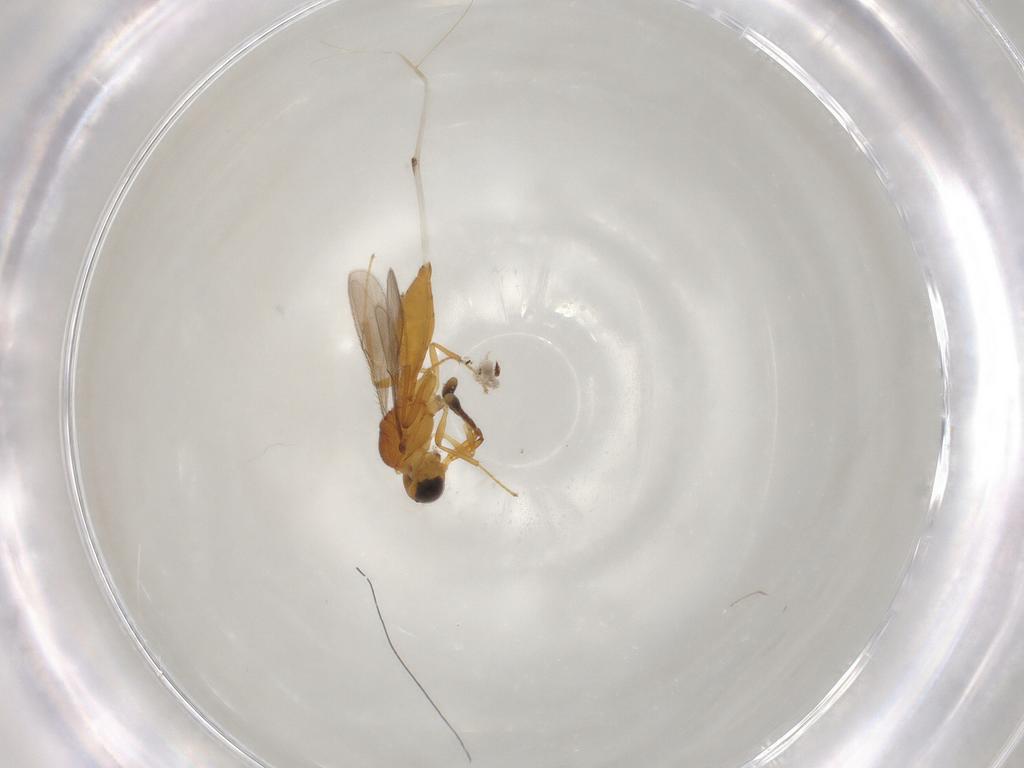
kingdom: Animalia
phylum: Arthropoda
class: Insecta
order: Hymenoptera
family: Scelionidae
